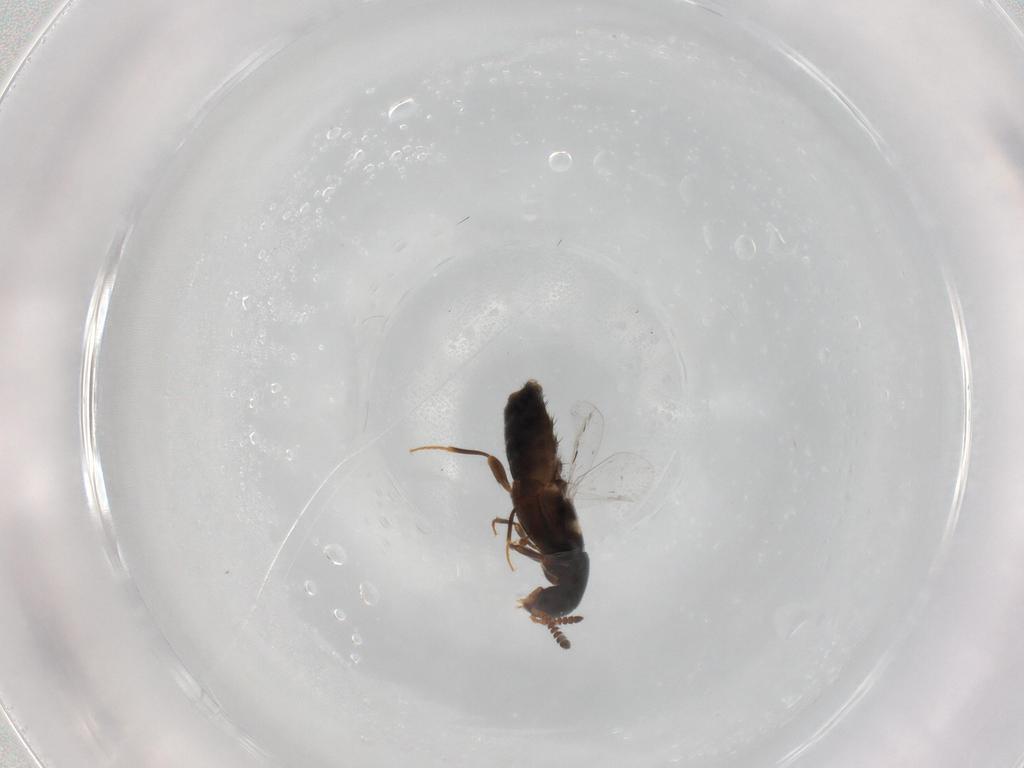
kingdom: Animalia
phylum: Arthropoda
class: Insecta
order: Coleoptera
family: Staphylinidae
